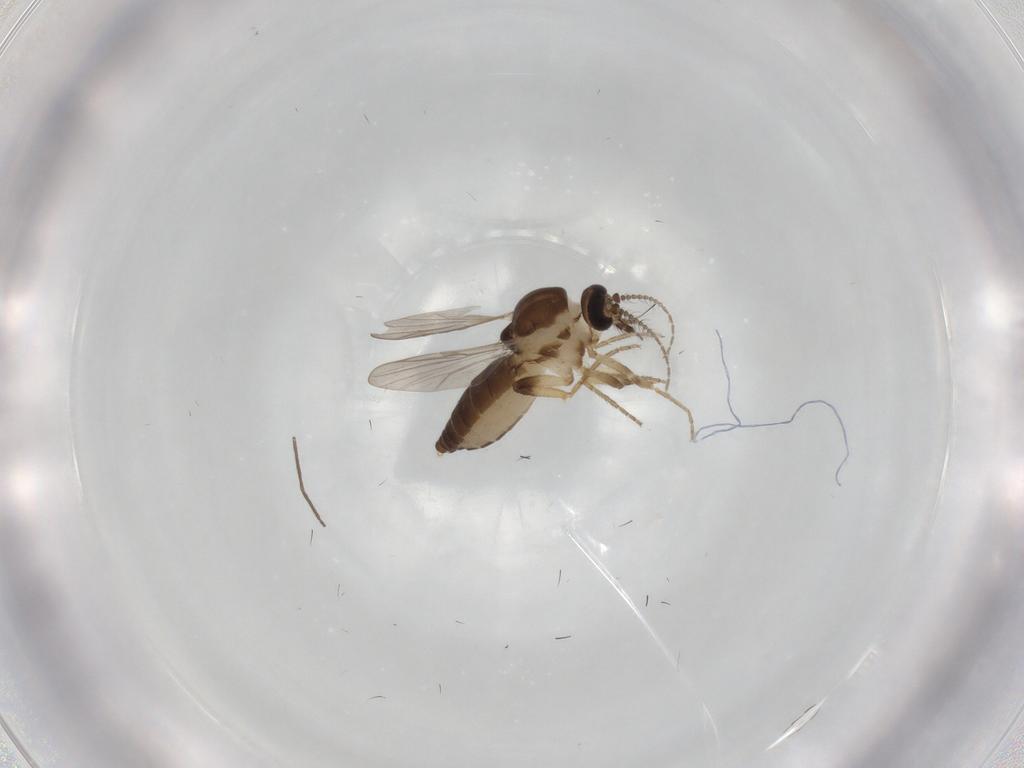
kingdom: Animalia
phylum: Arthropoda
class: Insecta
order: Diptera
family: Ceratopogonidae
